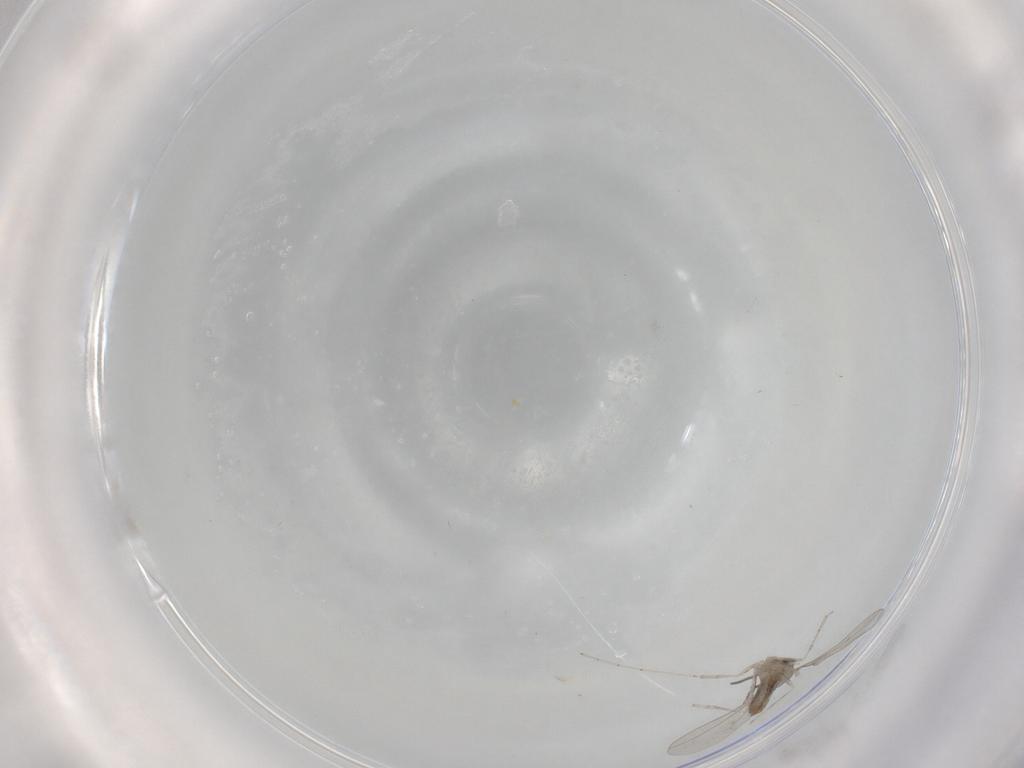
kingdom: Animalia
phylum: Arthropoda
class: Insecta
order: Diptera
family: Cecidomyiidae
